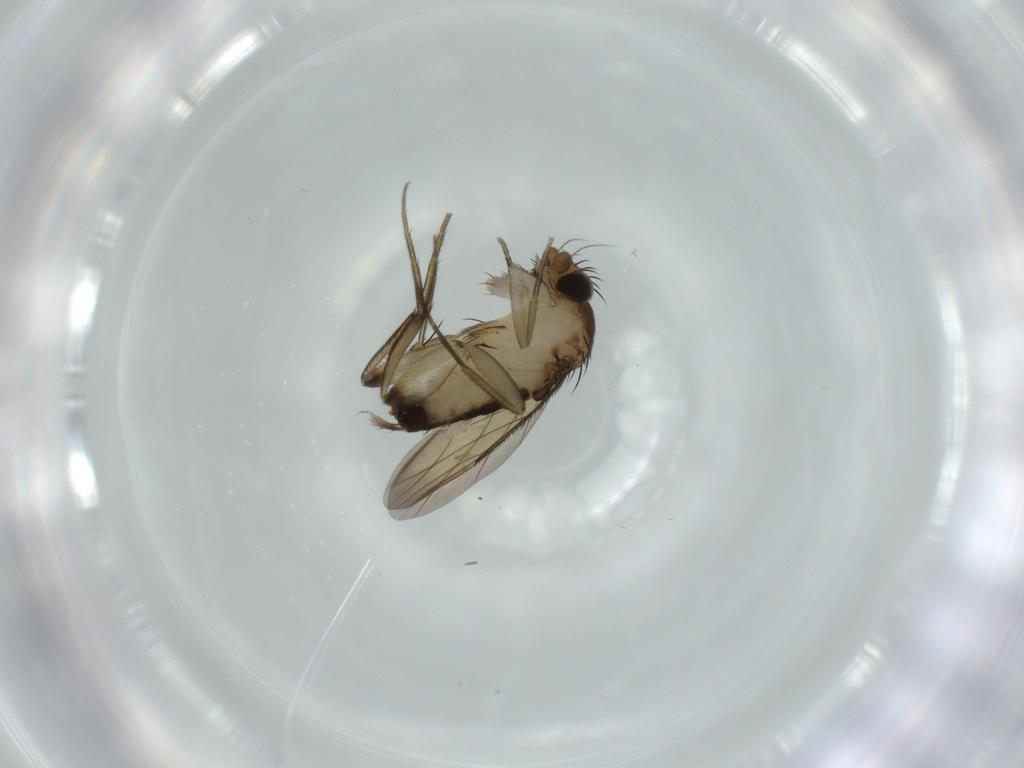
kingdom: Animalia
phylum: Arthropoda
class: Insecta
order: Diptera
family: Phoridae
